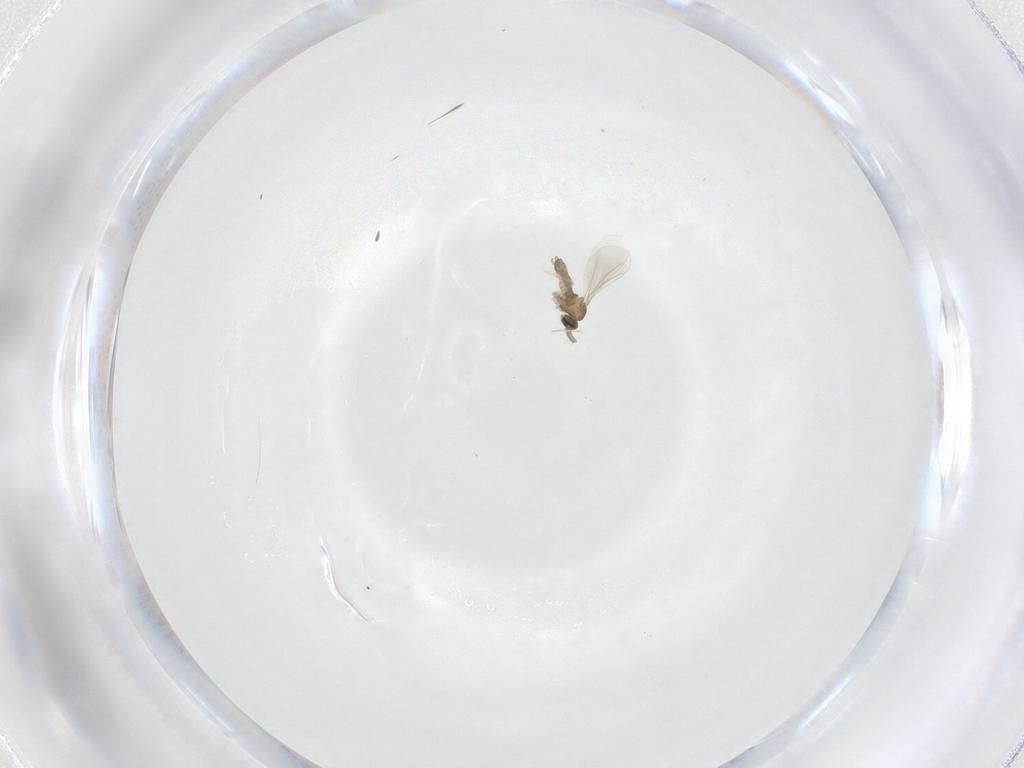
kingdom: Animalia
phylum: Arthropoda
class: Insecta
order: Diptera
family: Cecidomyiidae
